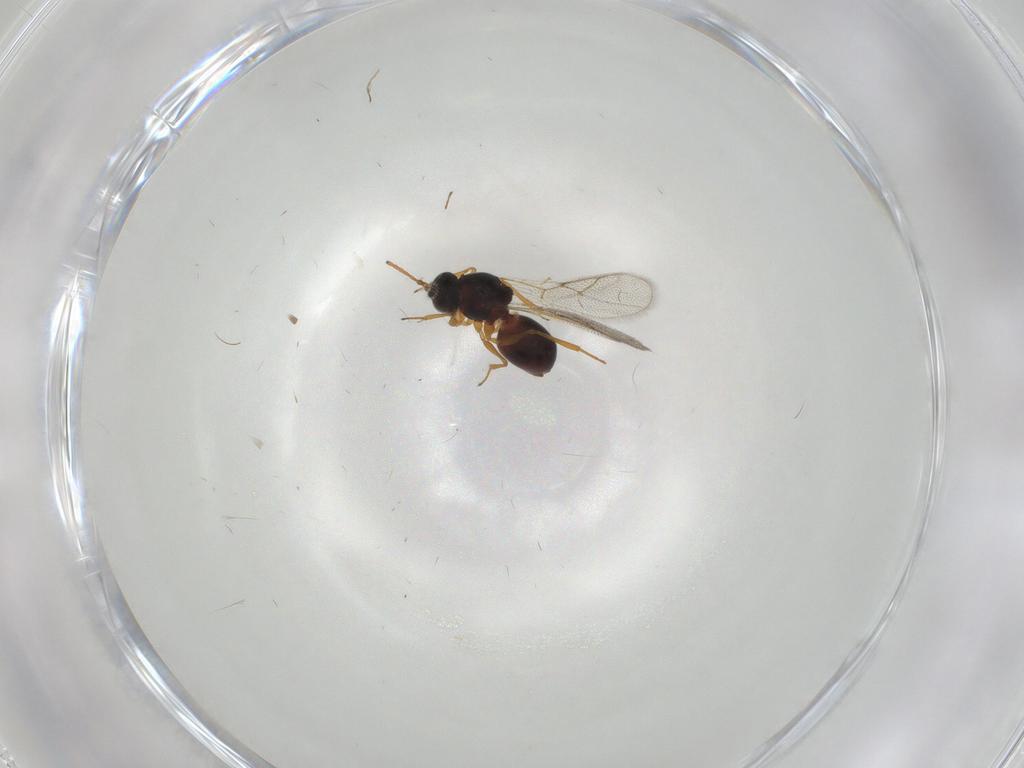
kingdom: Animalia
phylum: Arthropoda
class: Insecta
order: Hymenoptera
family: Figitidae
